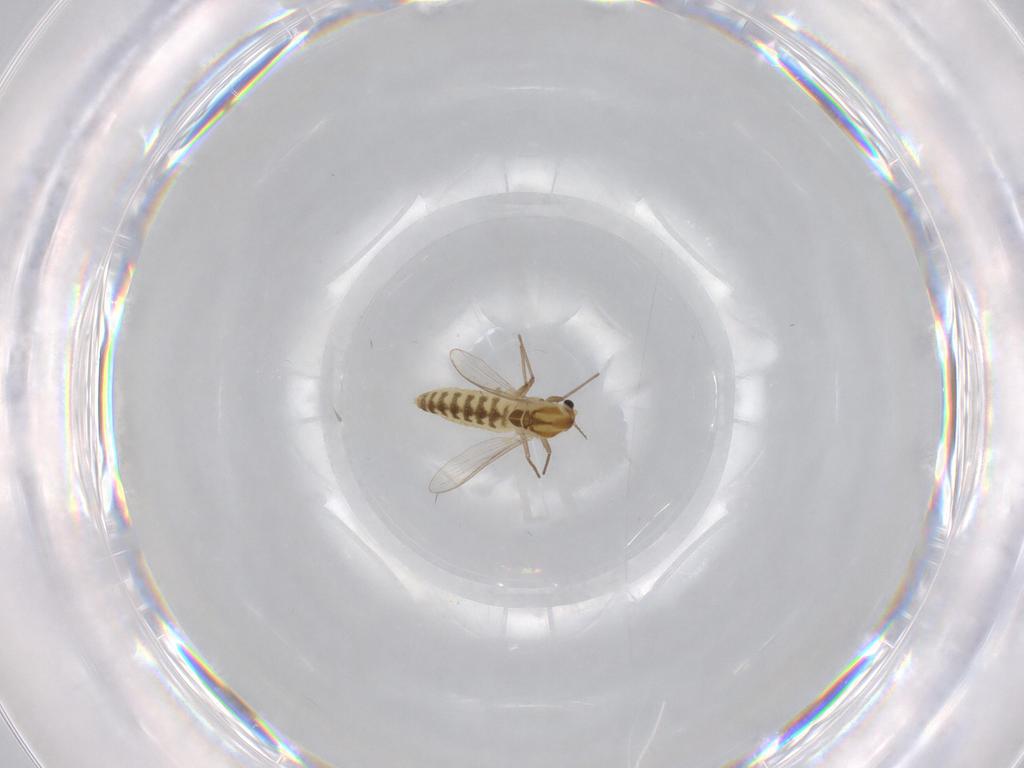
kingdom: Animalia
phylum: Arthropoda
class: Insecta
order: Diptera
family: Chironomidae
